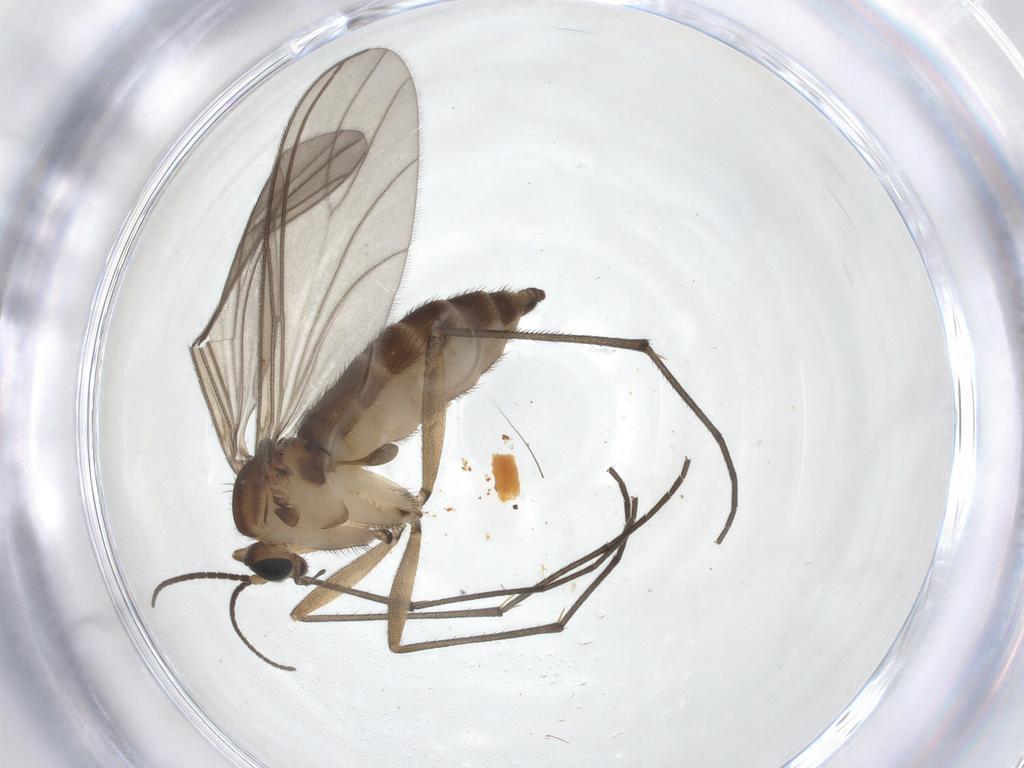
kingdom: Animalia
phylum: Arthropoda
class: Insecta
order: Diptera
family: Sciaridae
